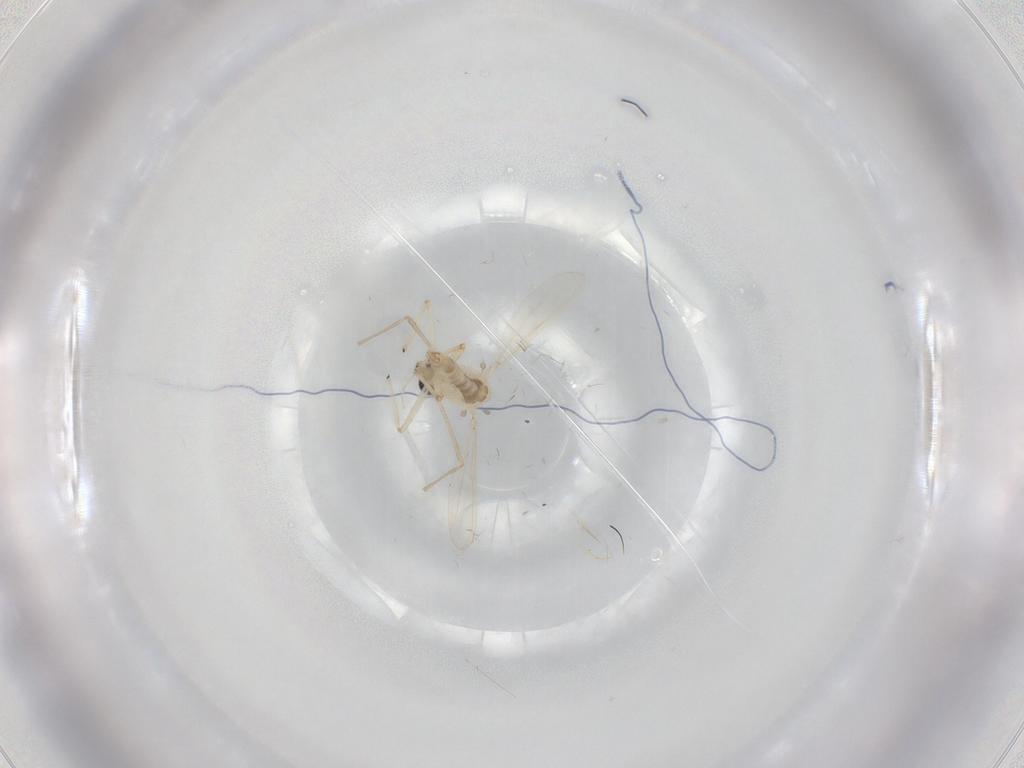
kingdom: Animalia
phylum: Arthropoda
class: Insecta
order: Diptera
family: Chironomidae
